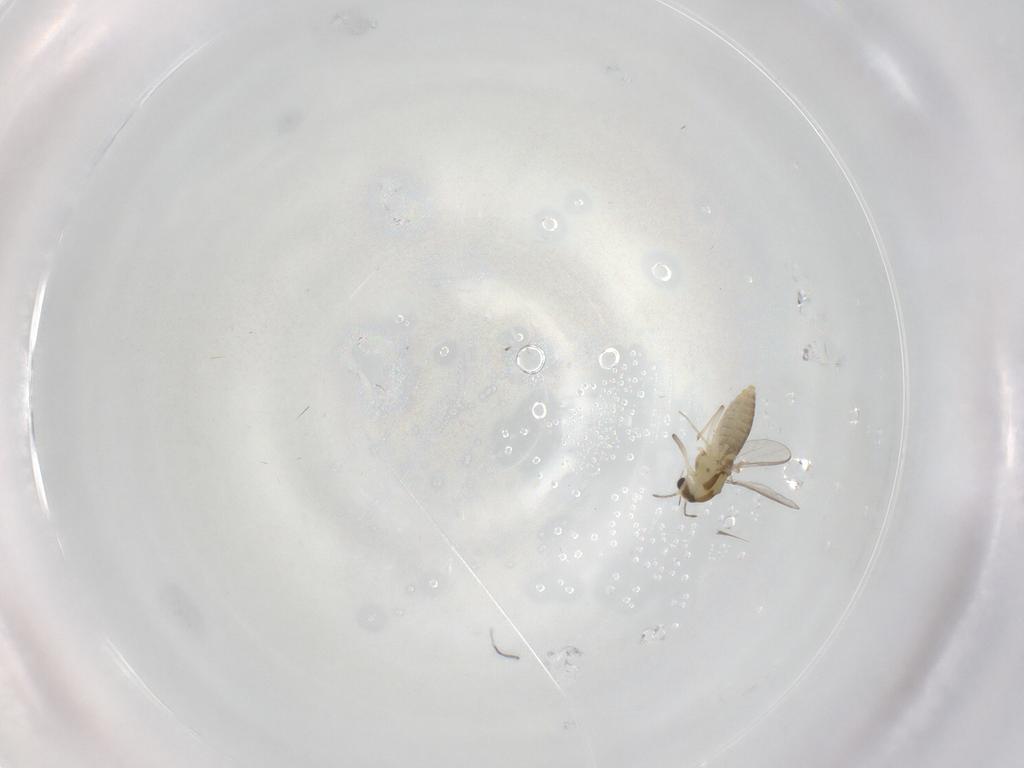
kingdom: Animalia
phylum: Arthropoda
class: Insecta
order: Diptera
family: Chironomidae
